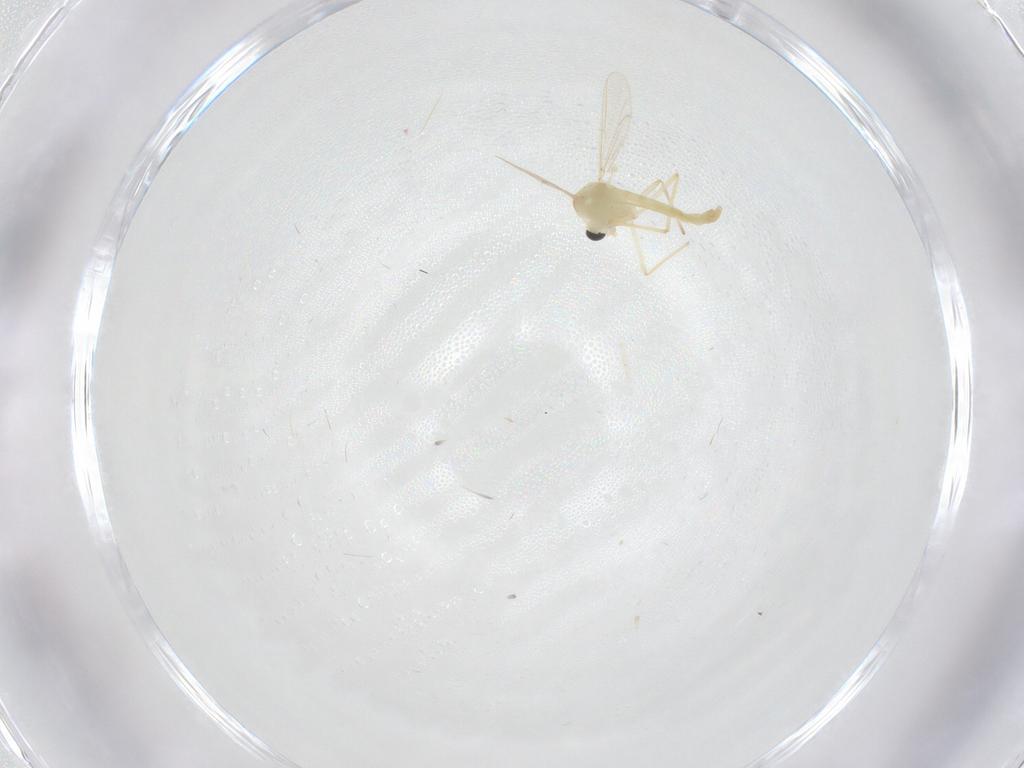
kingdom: Animalia
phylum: Arthropoda
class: Insecta
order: Diptera
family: Chironomidae
